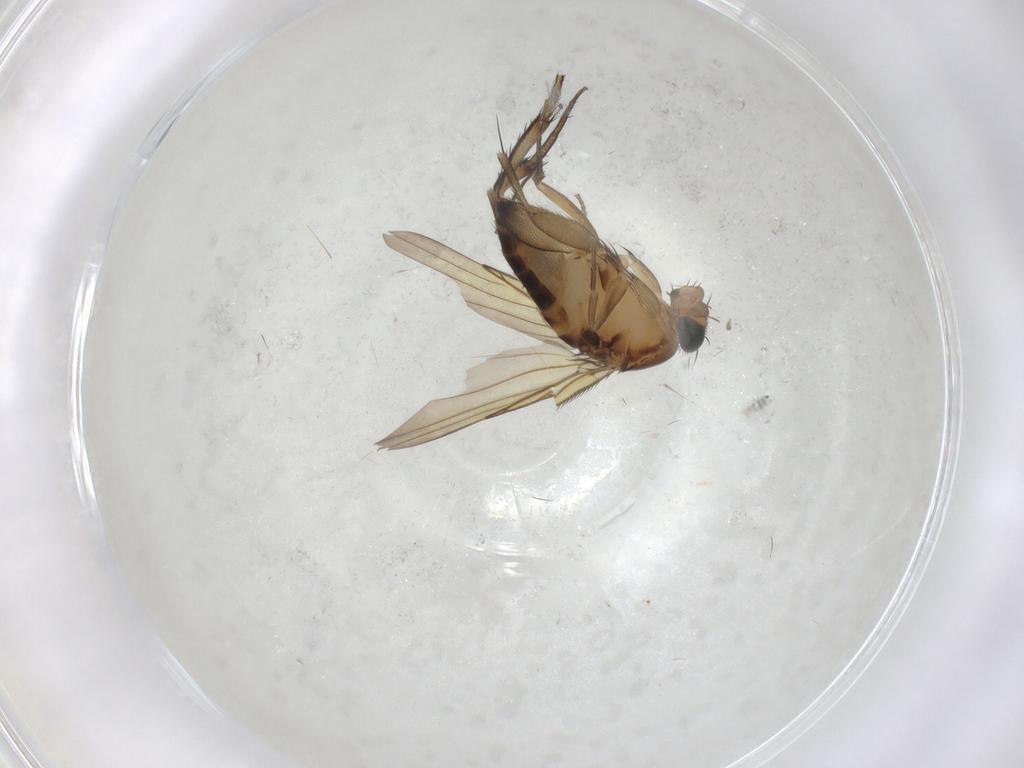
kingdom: Animalia
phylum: Arthropoda
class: Insecta
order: Diptera
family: Phoridae
